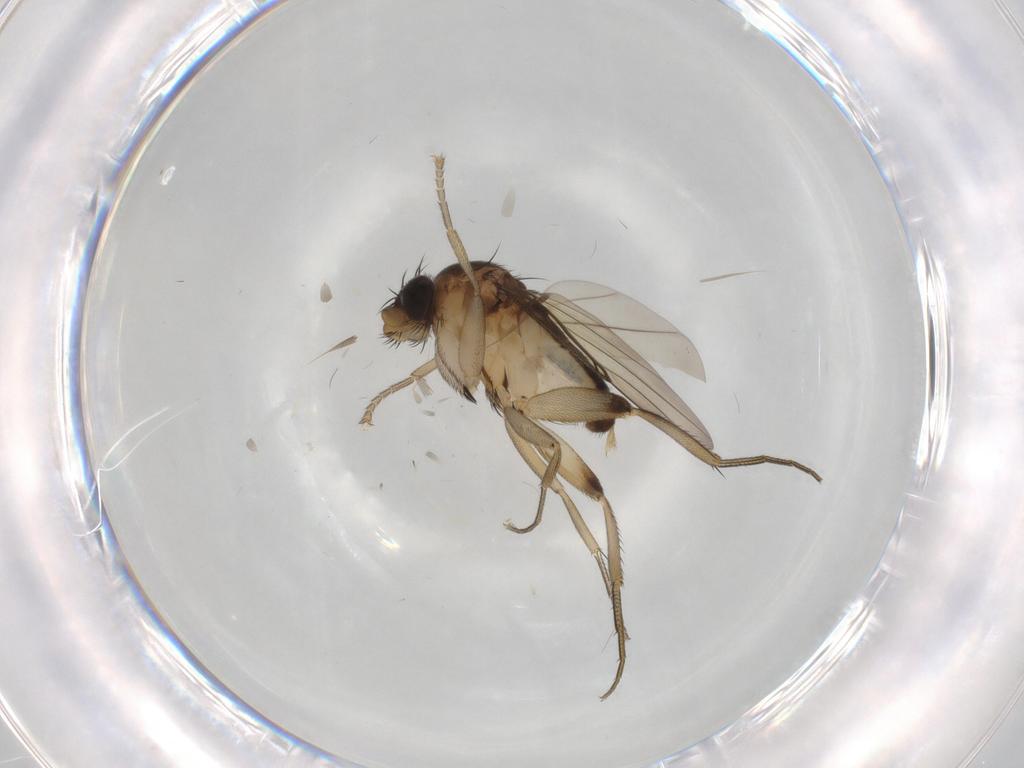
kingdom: Animalia
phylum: Arthropoda
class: Insecta
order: Diptera
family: Phoridae
